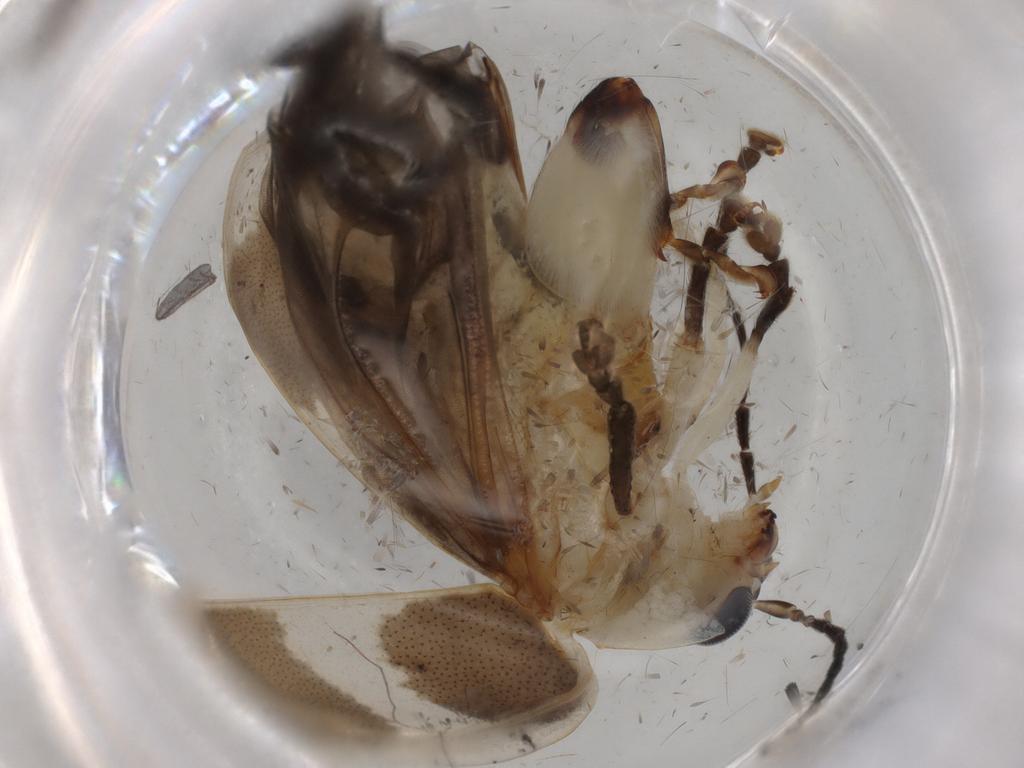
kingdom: Animalia
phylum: Arthropoda
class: Insecta
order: Coleoptera
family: Chrysomelidae
